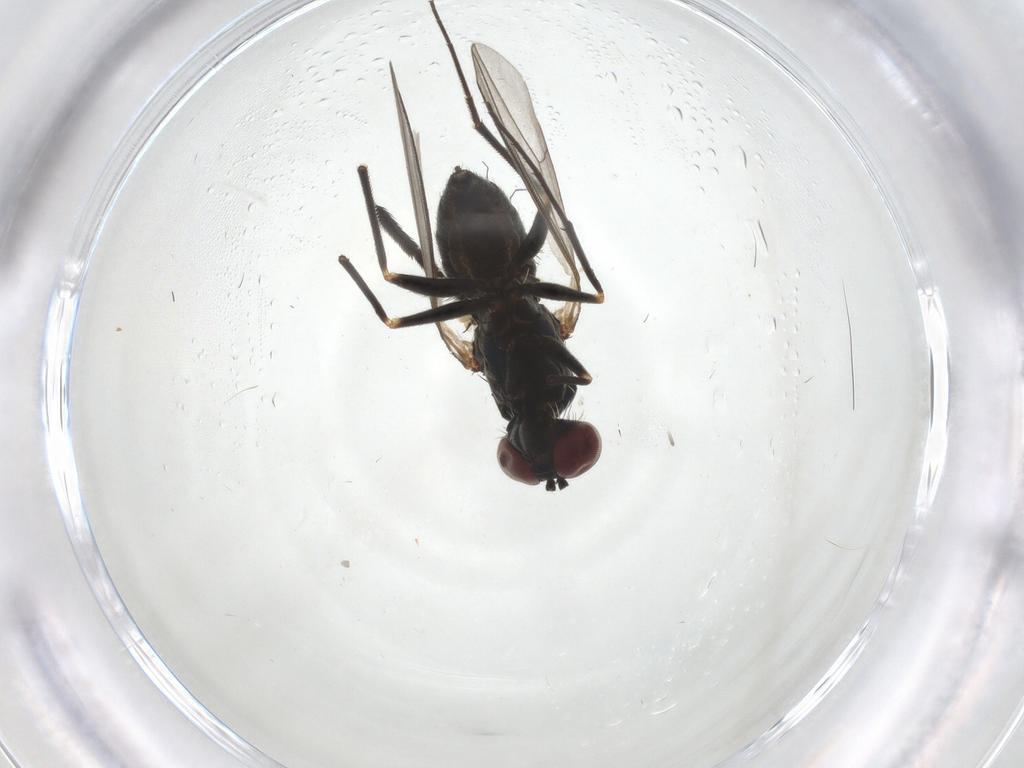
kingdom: Animalia
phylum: Arthropoda
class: Insecta
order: Diptera
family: Dolichopodidae
